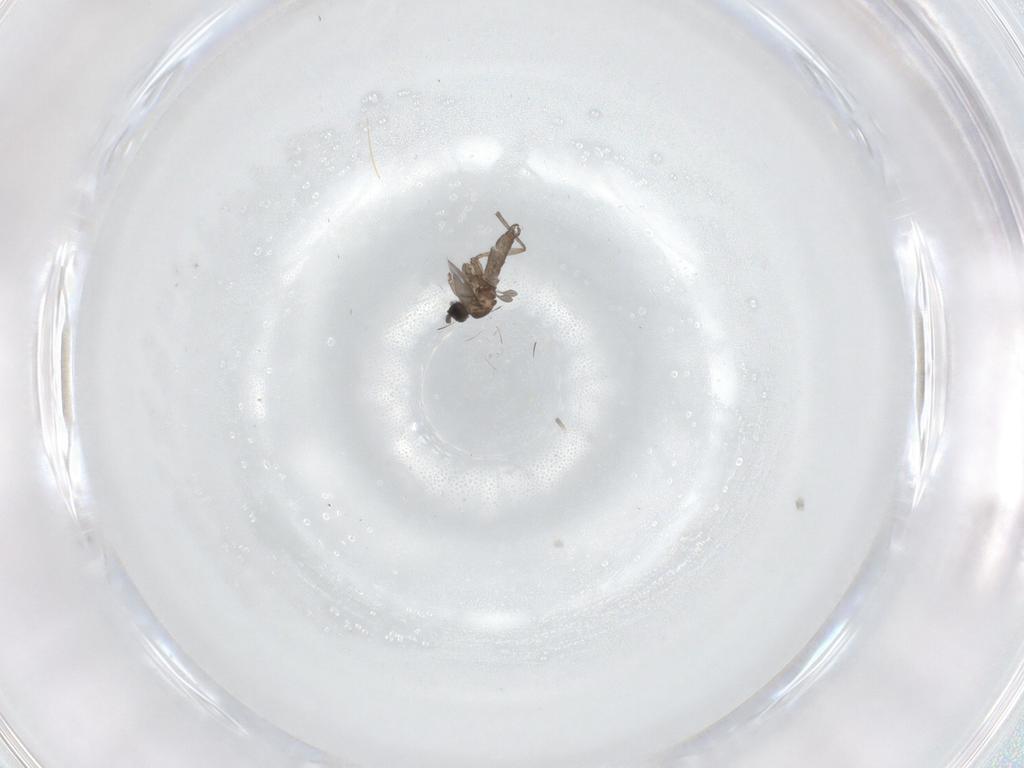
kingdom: Animalia
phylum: Arthropoda
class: Insecta
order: Diptera
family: Sciaridae
